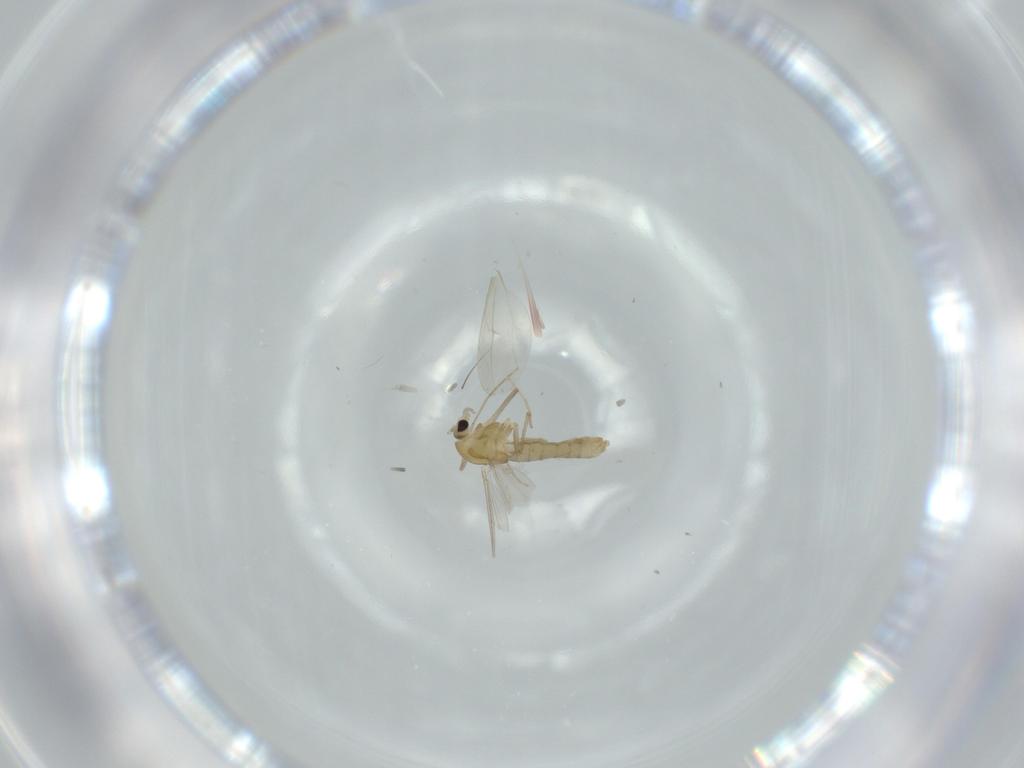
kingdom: Animalia
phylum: Arthropoda
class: Insecta
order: Diptera
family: Chironomidae
